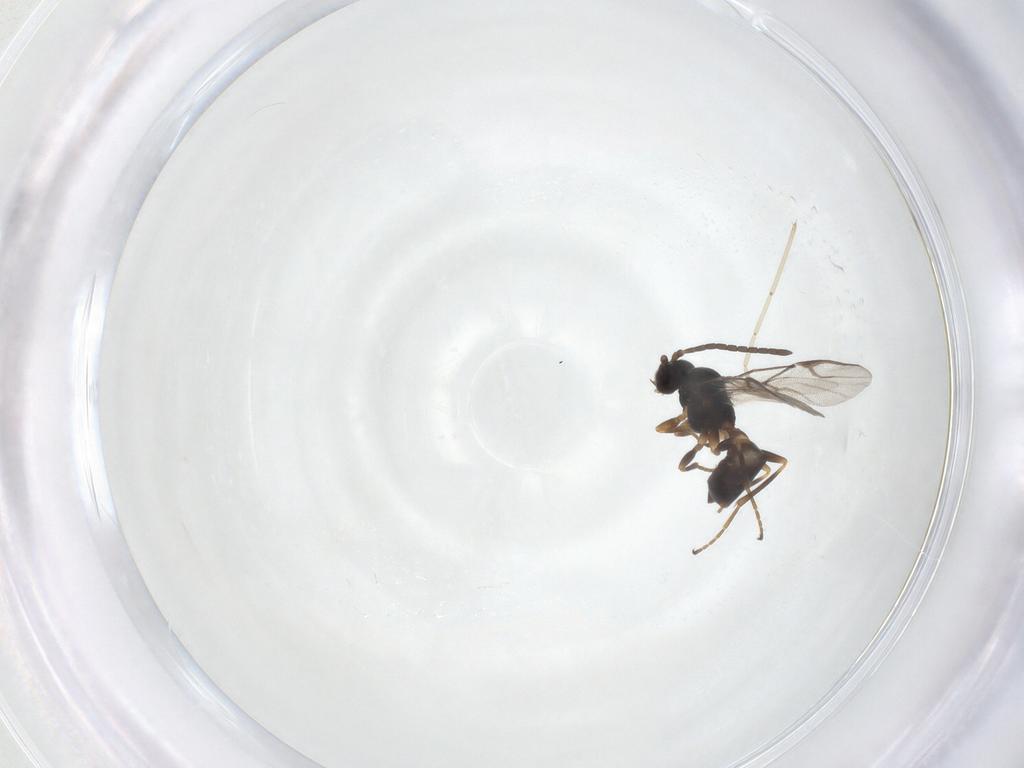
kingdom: Animalia
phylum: Arthropoda
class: Insecta
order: Hymenoptera
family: Braconidae
